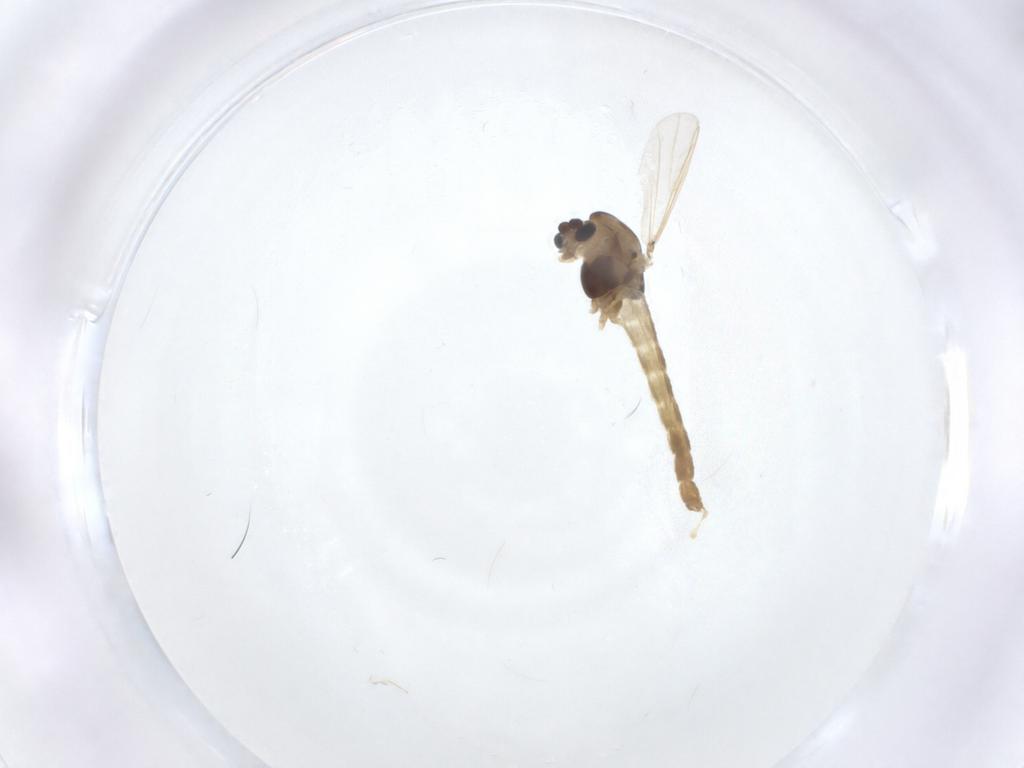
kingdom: Animalia
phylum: Arthropoda
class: Insecta
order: Diptera
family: Chironomidae
